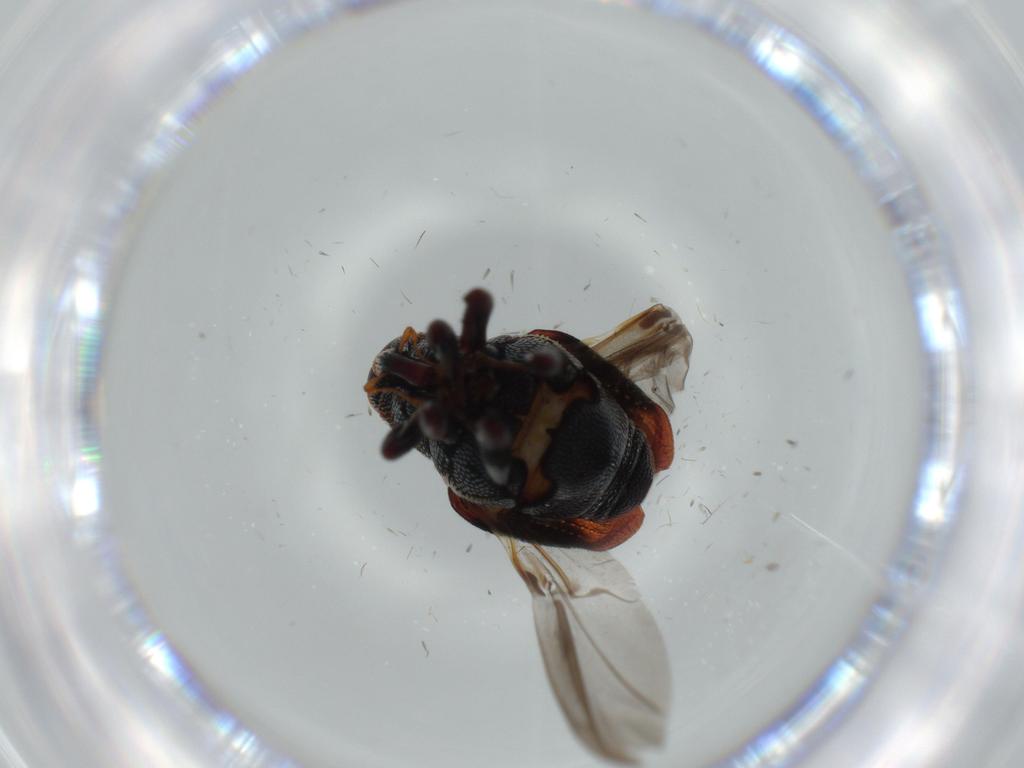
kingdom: Animalia
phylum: Arthropoda
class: Insecta
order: Coleoptera
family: Curculionidae
